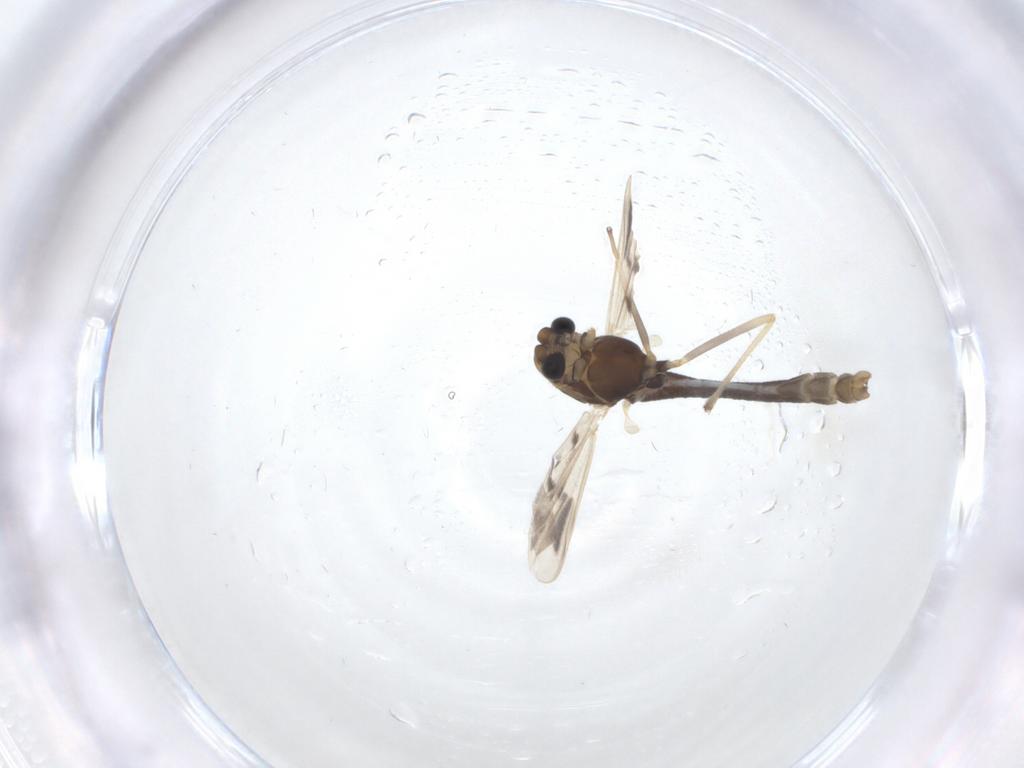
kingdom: Animalia
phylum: Arthropoda
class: Insecta
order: Diptera
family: Chironomidae
